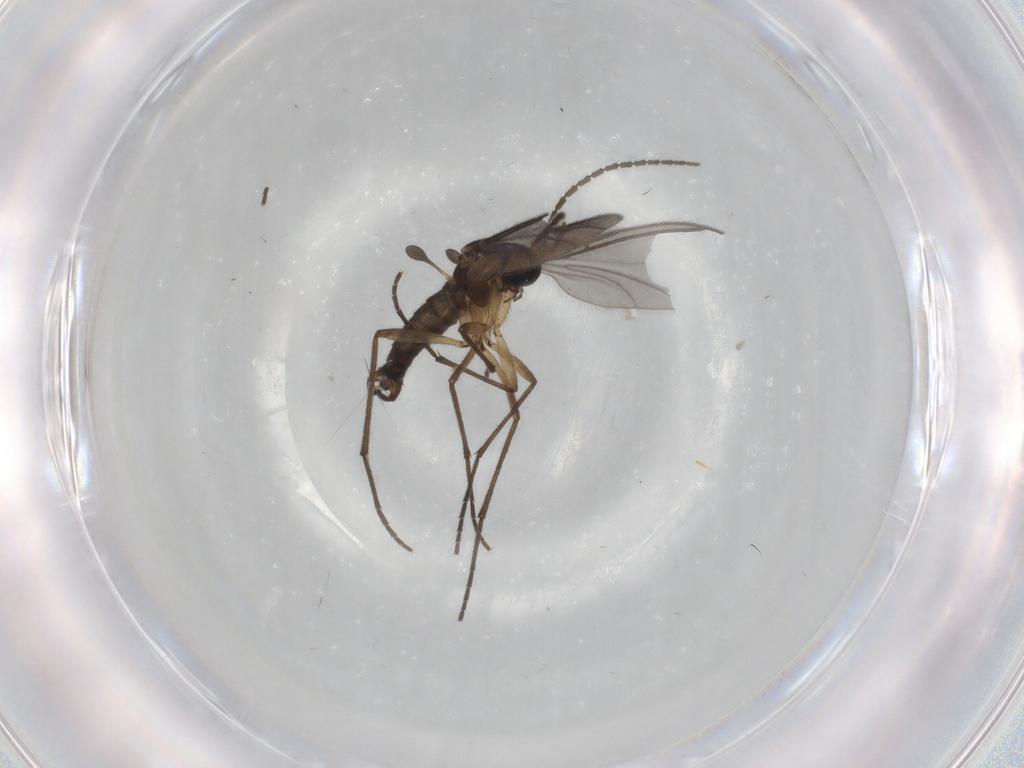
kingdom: Animalia
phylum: Arthropoda
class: Insecta
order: Diptera
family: Sciaridae
